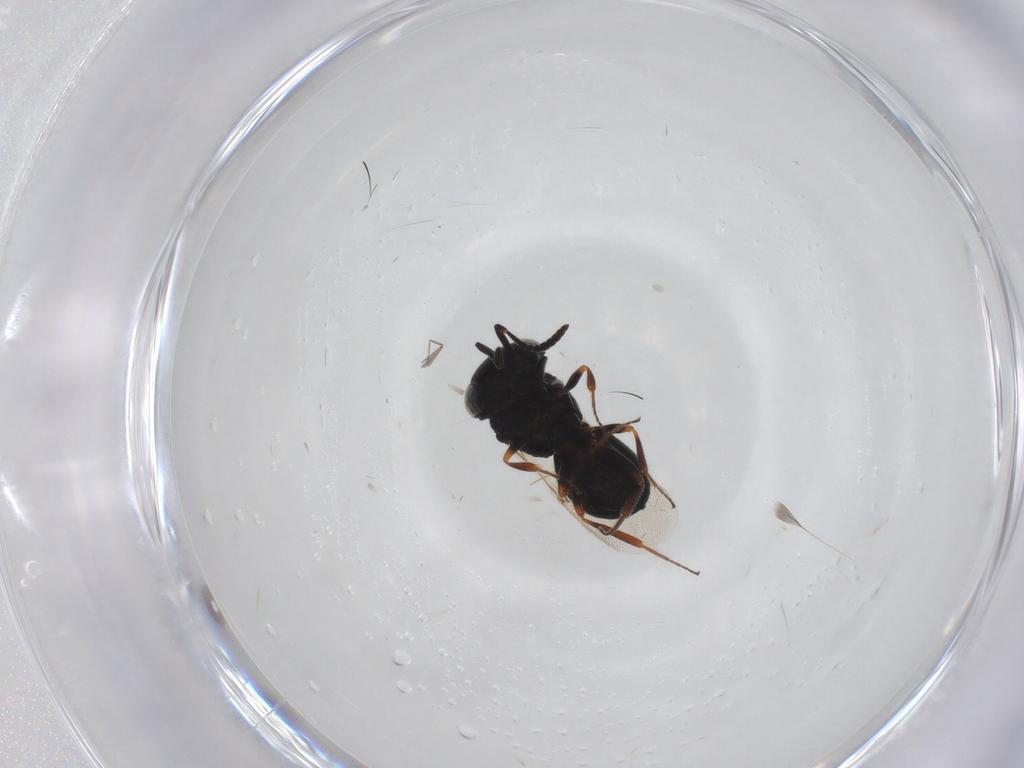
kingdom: Animalia
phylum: Arthropoda
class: Insecta
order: Hymenoptera
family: Scelionidae
